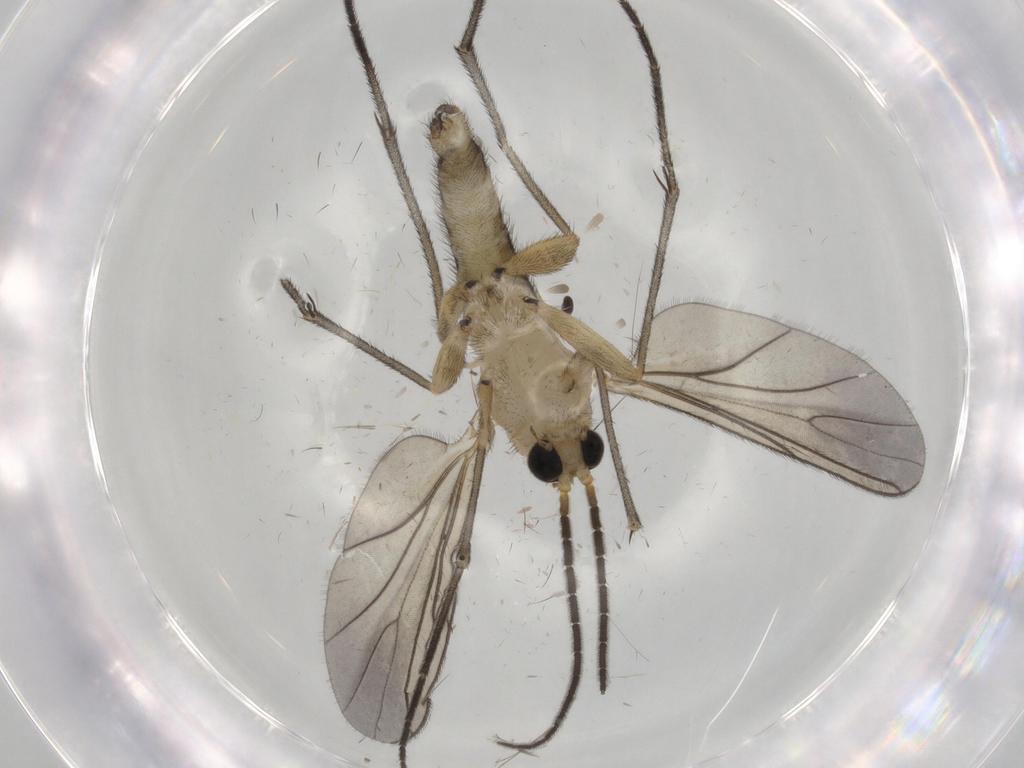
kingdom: Animalia
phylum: Arthropoda
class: Insecta
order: Diptera
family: Sciaridae
